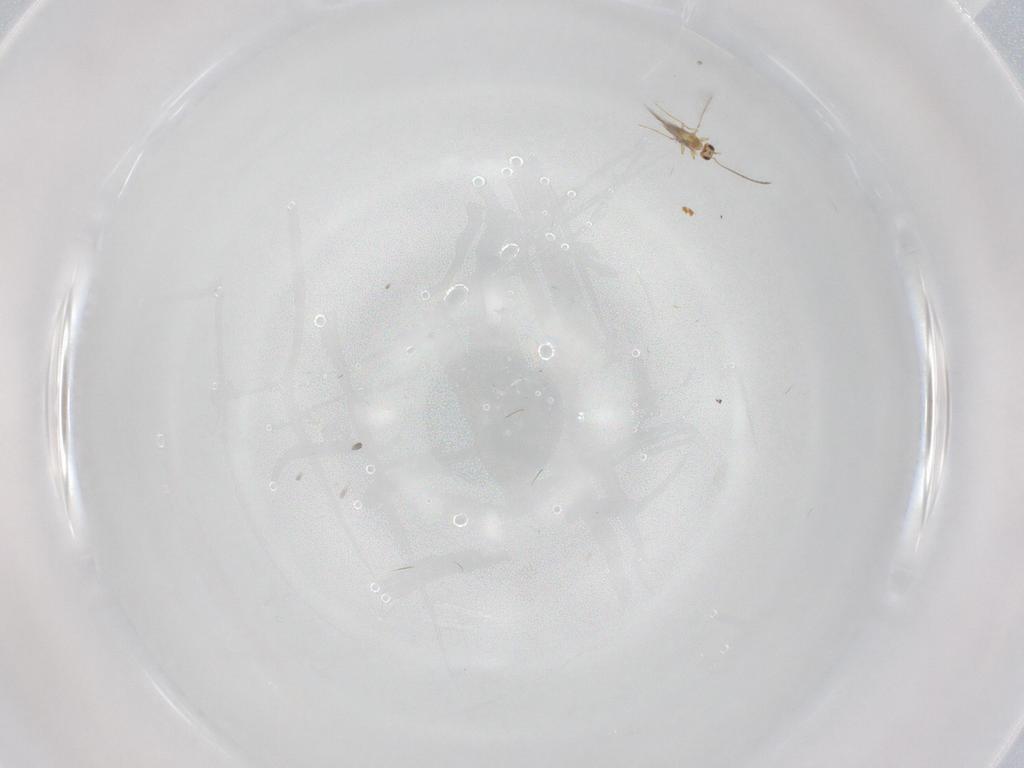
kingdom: Animalia
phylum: Arthropoda
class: Insecta
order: Hymenoptera
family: Mymaridae
